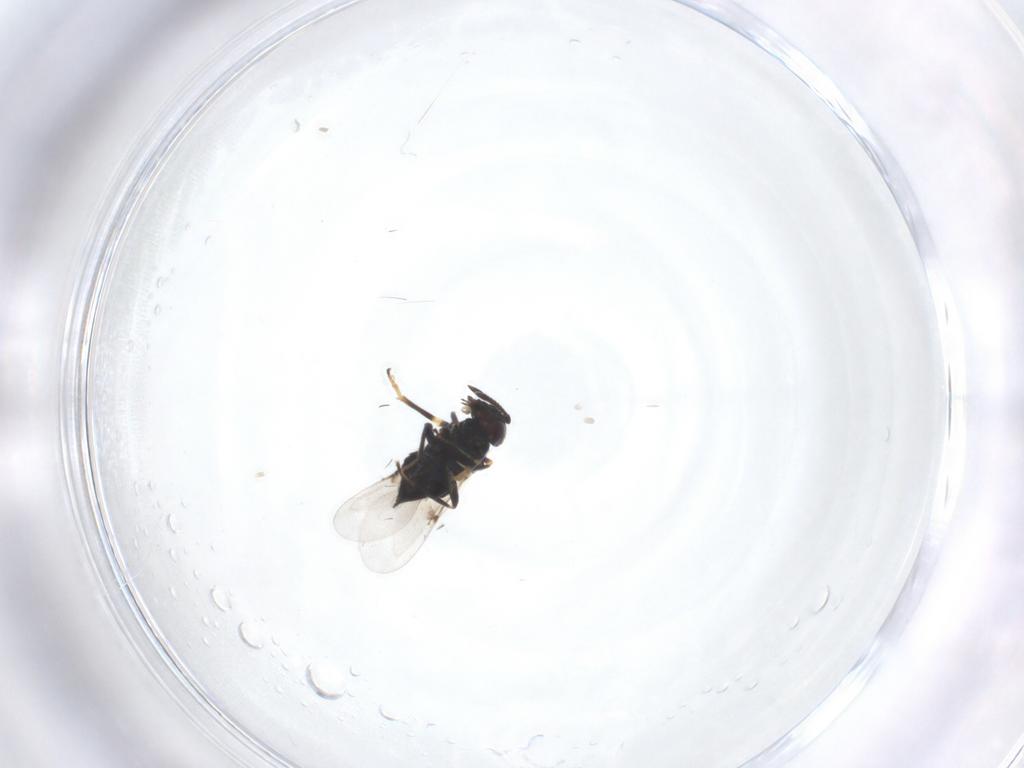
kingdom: Animalia
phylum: Arthropoda
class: Insecta
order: Hymenoptera
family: Encyrtidae
